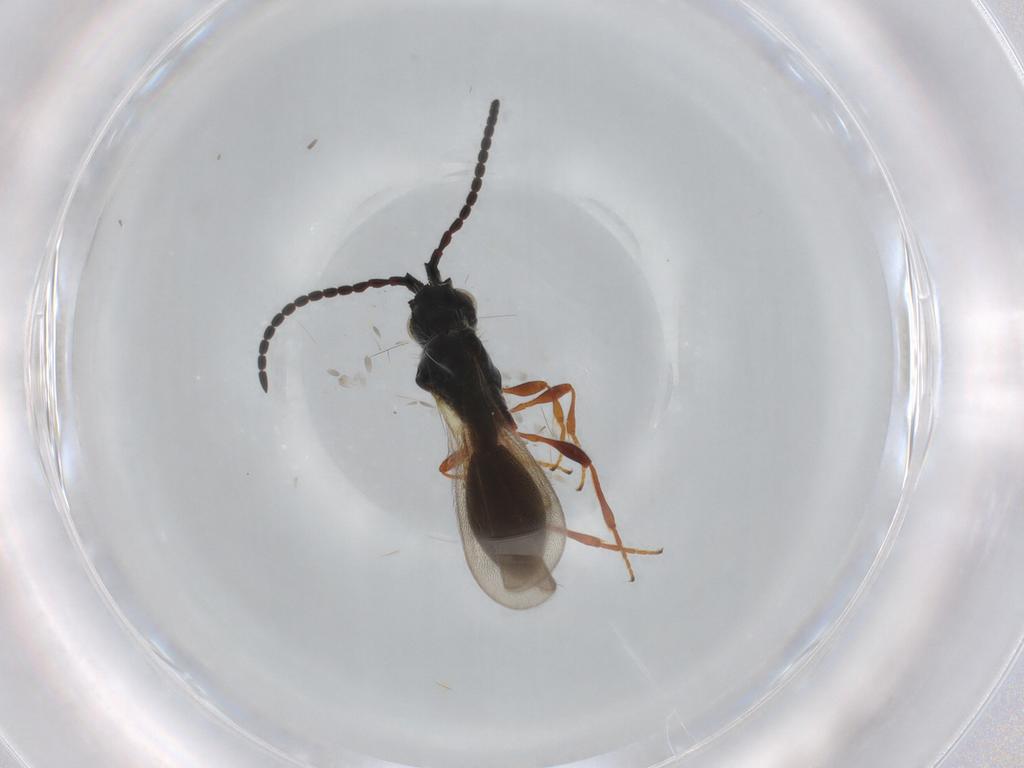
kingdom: Animalia
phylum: Arthropoda
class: Insecta
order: Hymenoptera
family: Diapriidae
